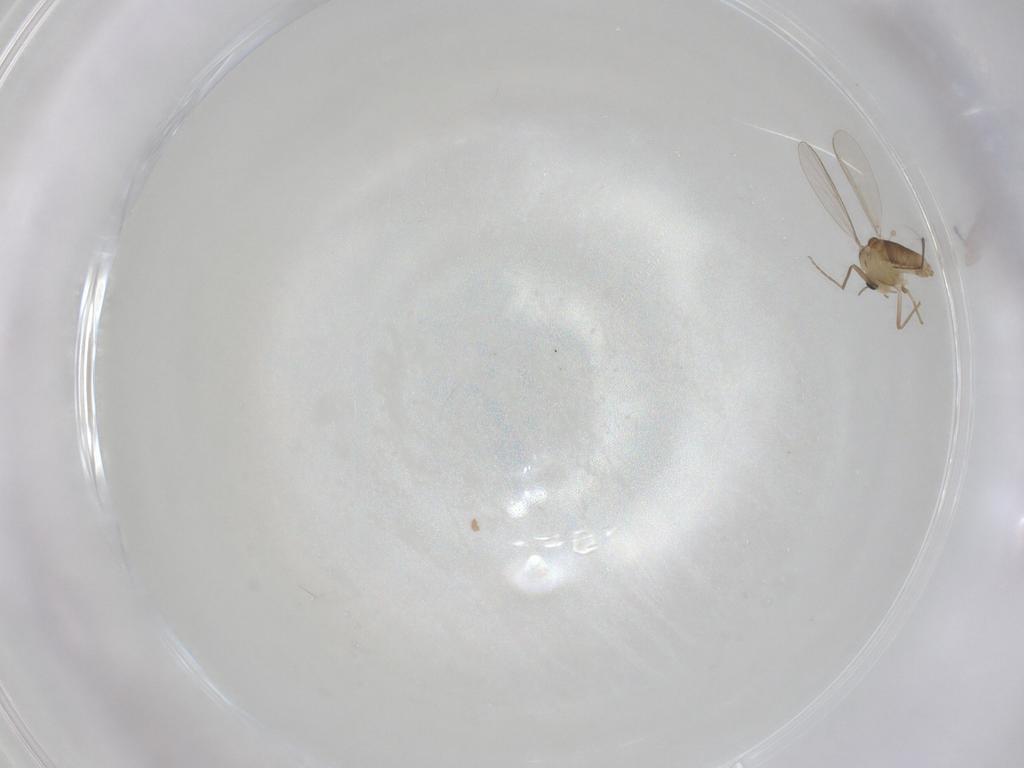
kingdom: Animalia
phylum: Arthropoda
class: Insecta
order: Diptera
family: Chironomidae
